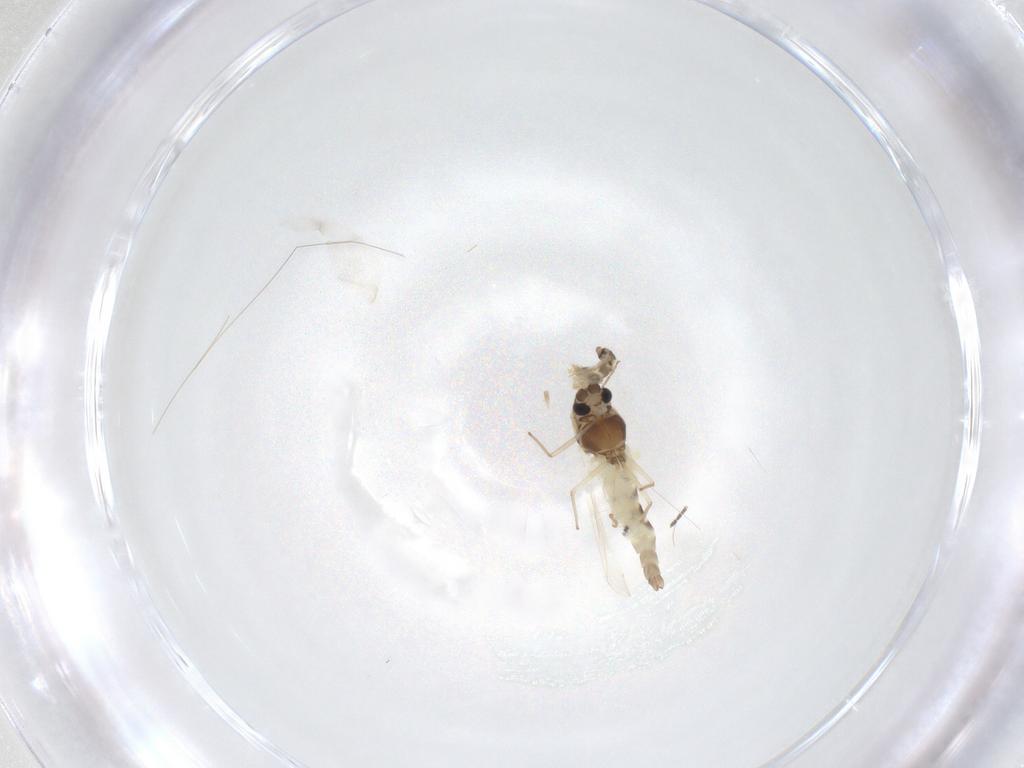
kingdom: Animalia
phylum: Arthropoda
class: Insecta
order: Diptera
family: Chironomidae
